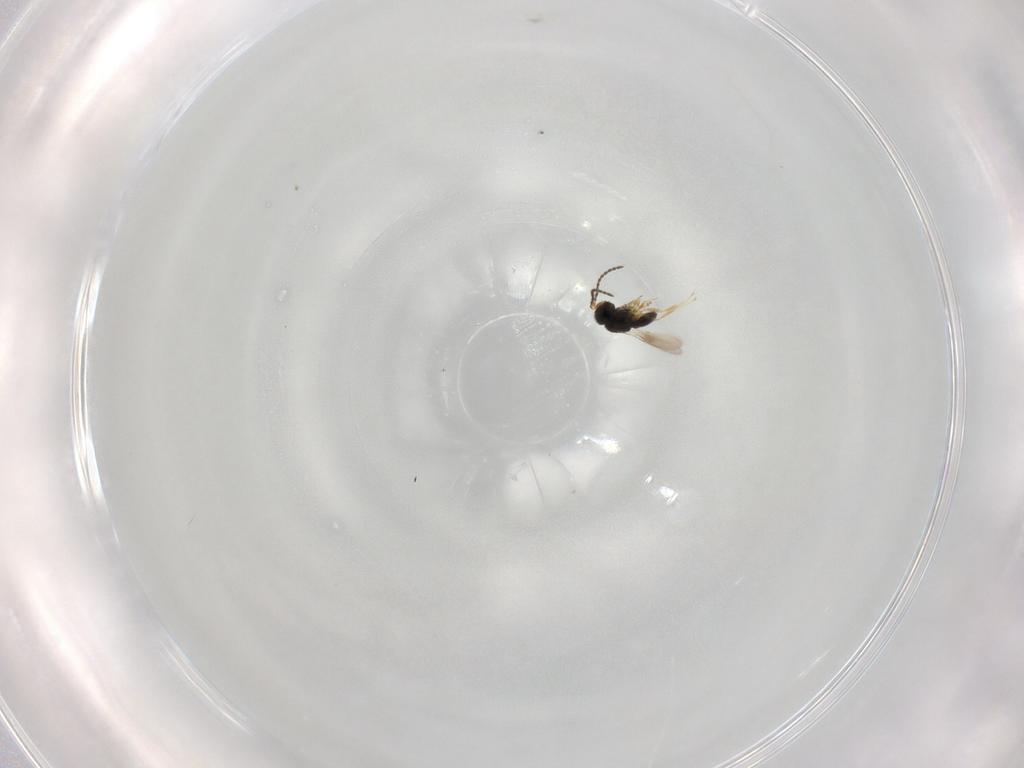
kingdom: Animalia
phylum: Arthropoda
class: Insecta
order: Hymenoptera
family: Scelionidae
